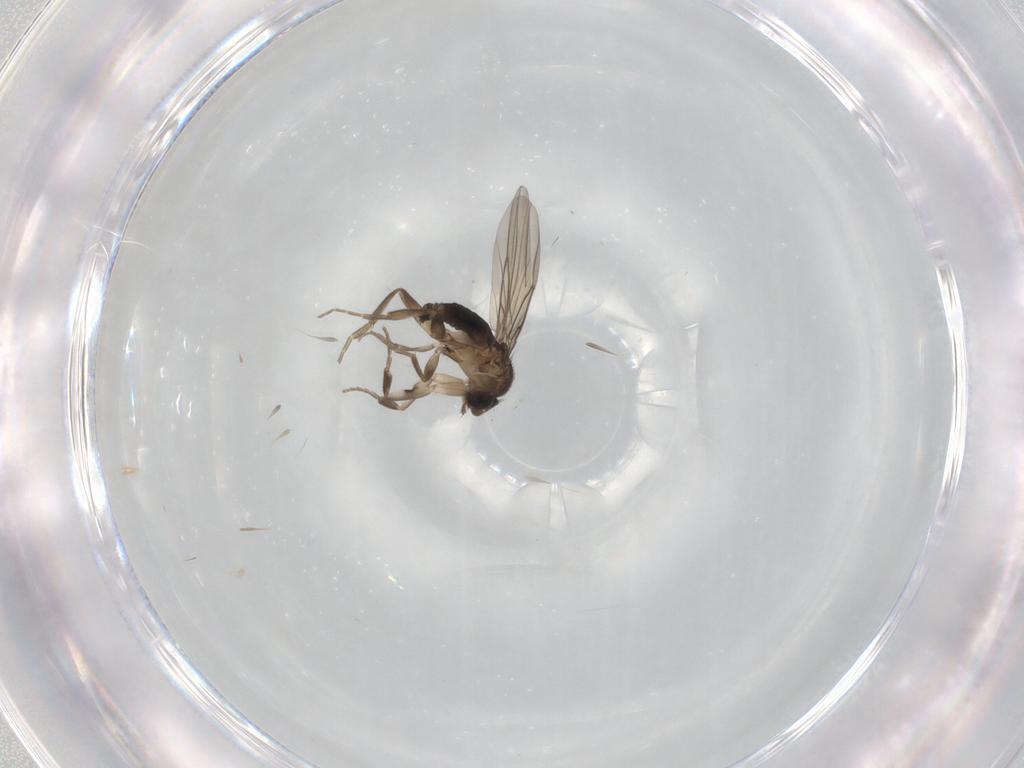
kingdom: Animalia
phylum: Arthropoda
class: Insecta
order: Diptera
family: Phoridae
